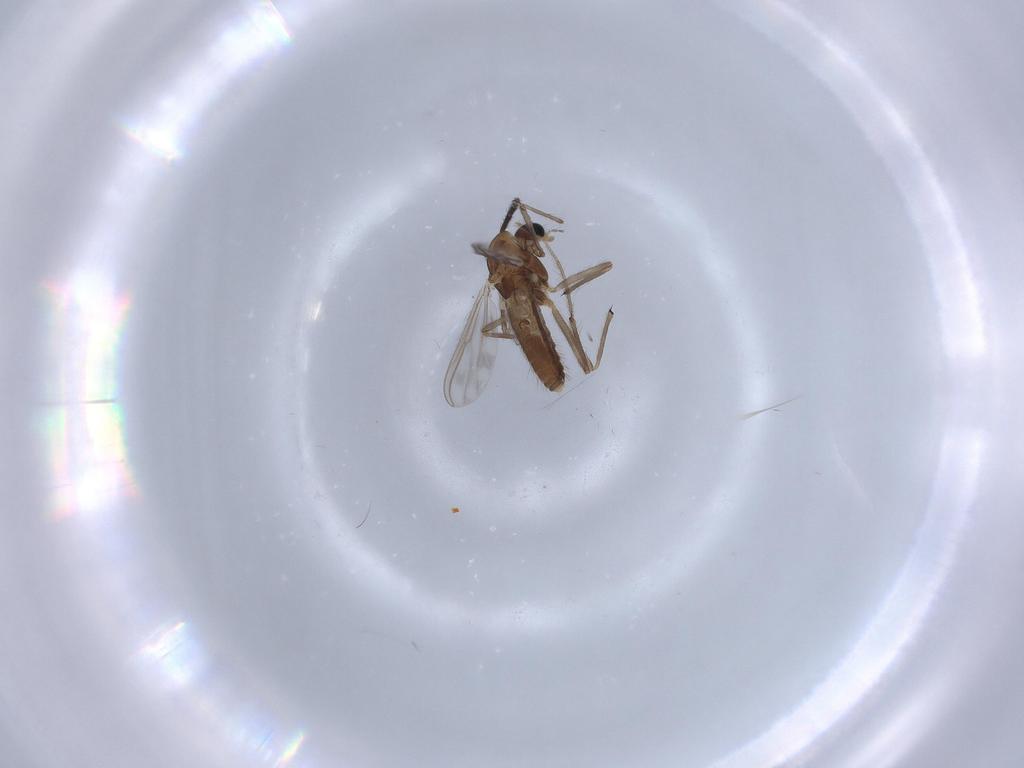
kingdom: Animalia
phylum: Arthropoda
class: Insecta
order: Diptera
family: Chironomidae
